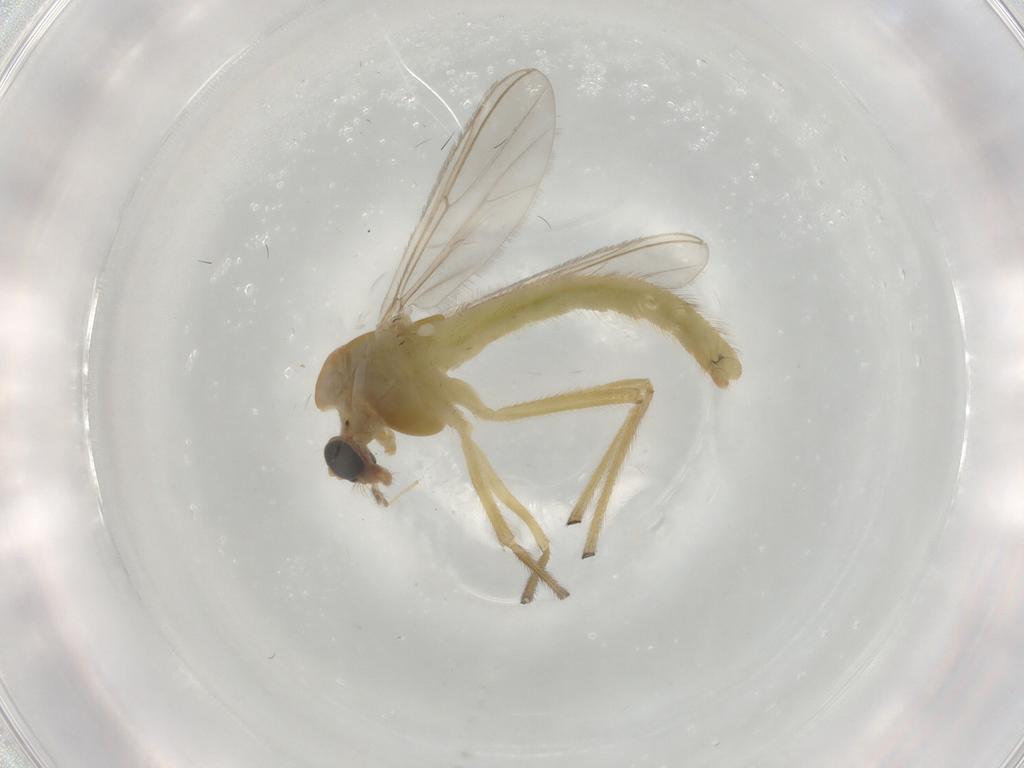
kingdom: Animalia
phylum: Arthropoda
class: Insecta
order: Diptera
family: Chironomidae
